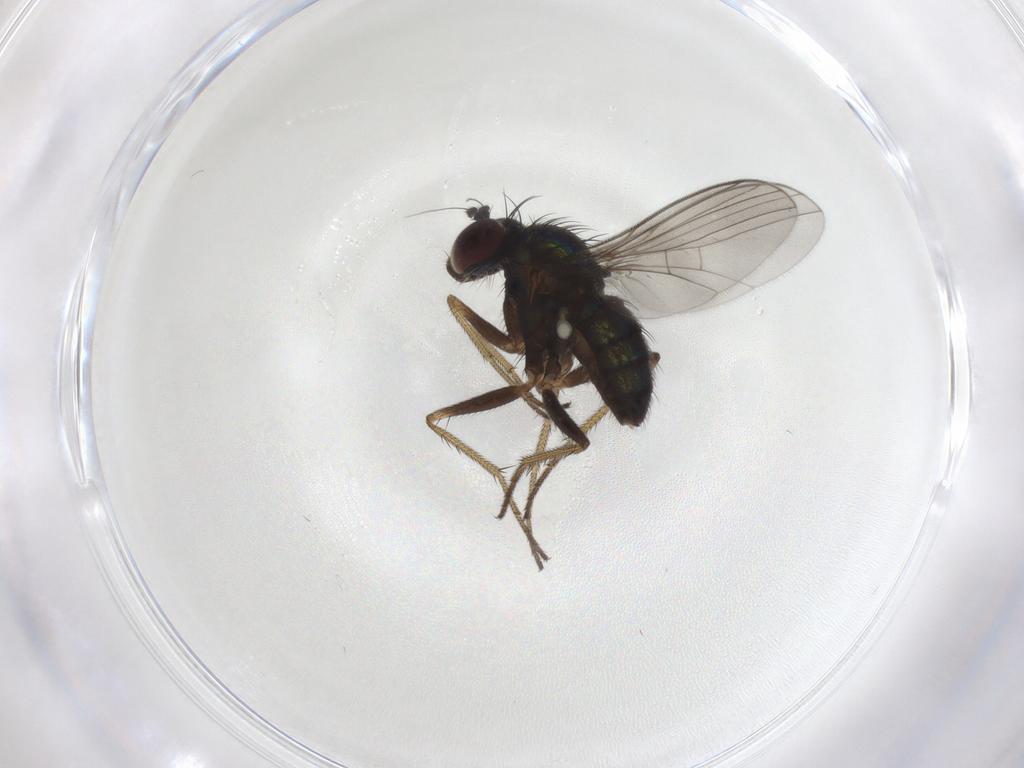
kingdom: Animalia
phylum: Arthropoda
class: Insecta
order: Diptera
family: Dolichopodidae
